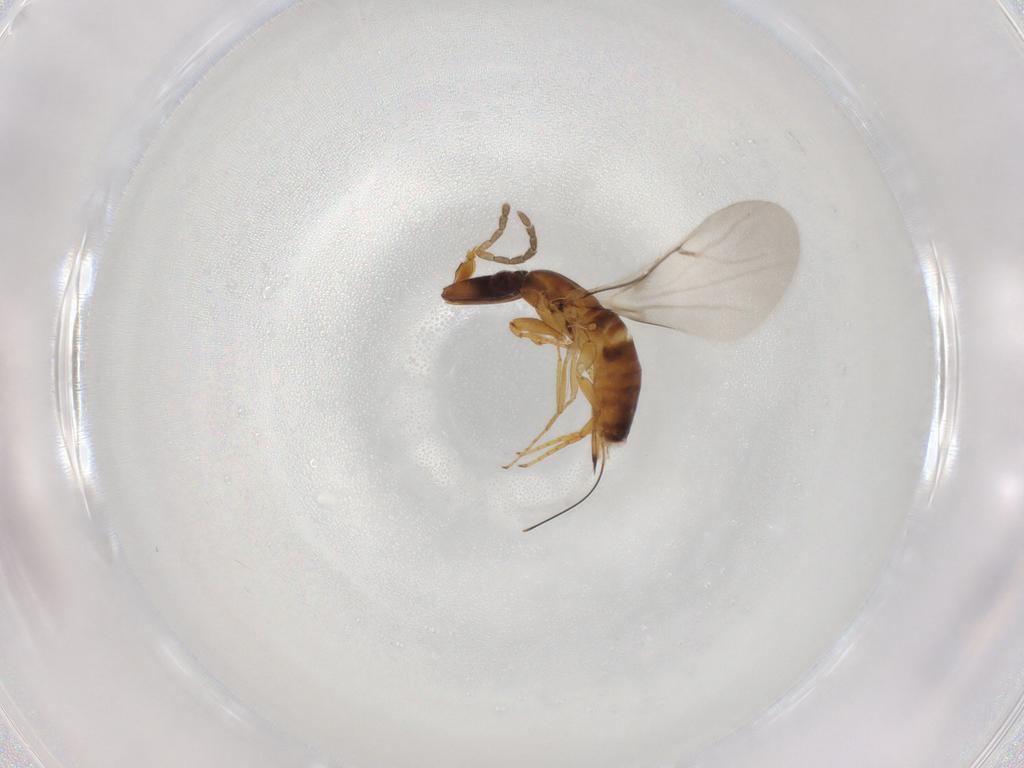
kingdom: Animalia
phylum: Arthropoda
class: Insecta
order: Hymenoptera
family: Agaonidae
